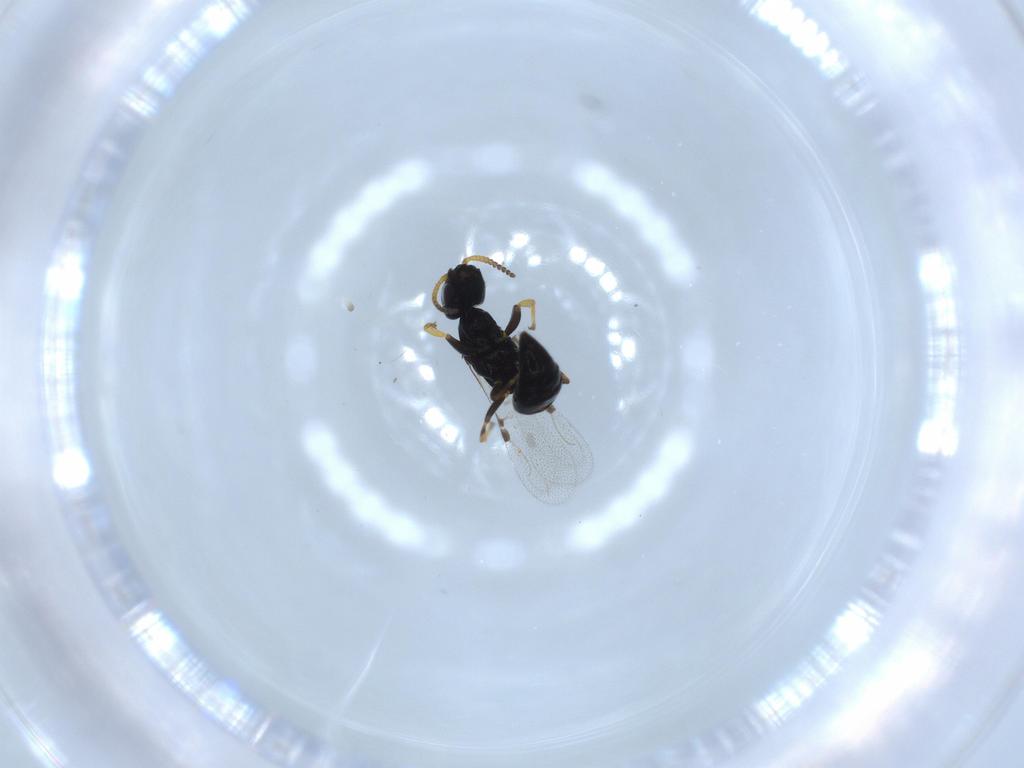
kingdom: Animalia
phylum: Arthropoda
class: Insecta
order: Hymenoptera
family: Bethylidae
